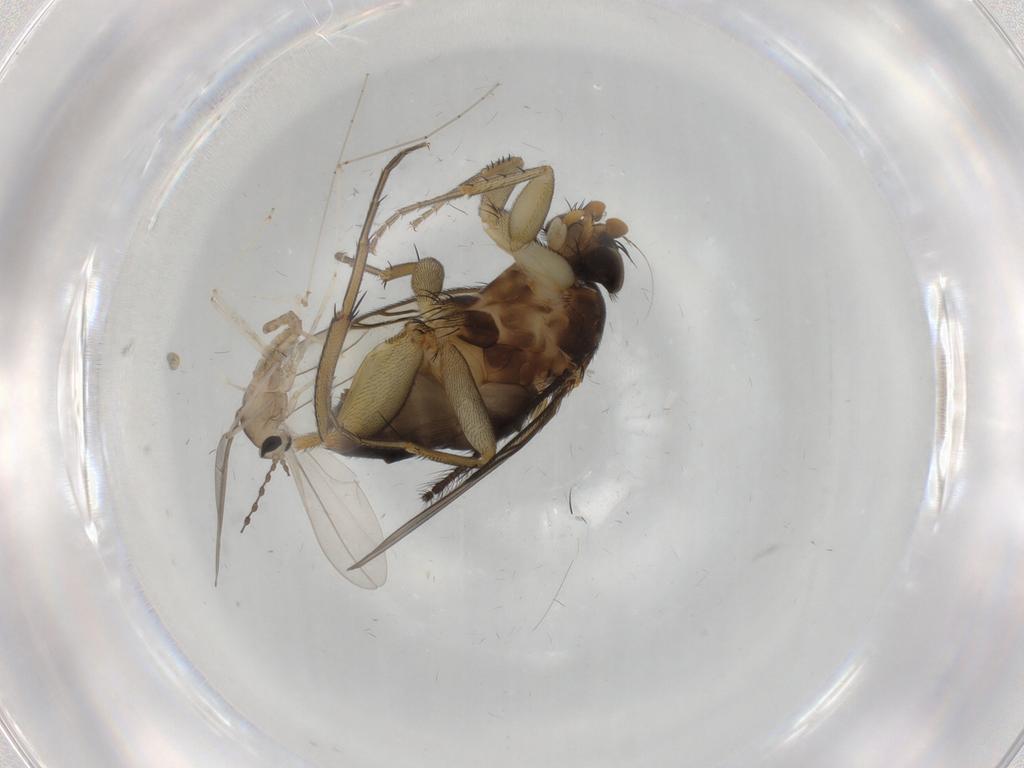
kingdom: Animalia
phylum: Arthropoda
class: Insecta
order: Diptera
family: Cecidomyiidae
